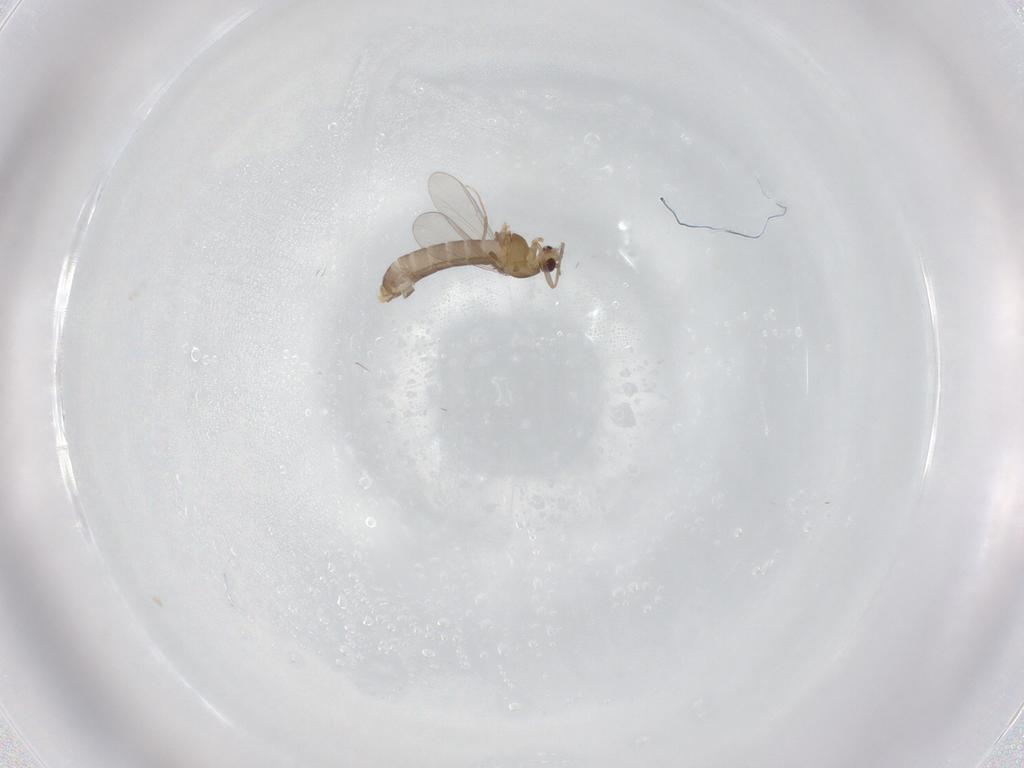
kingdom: Animalia
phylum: Arthropoda
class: Insecta
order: Diptera
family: Chironomidae
